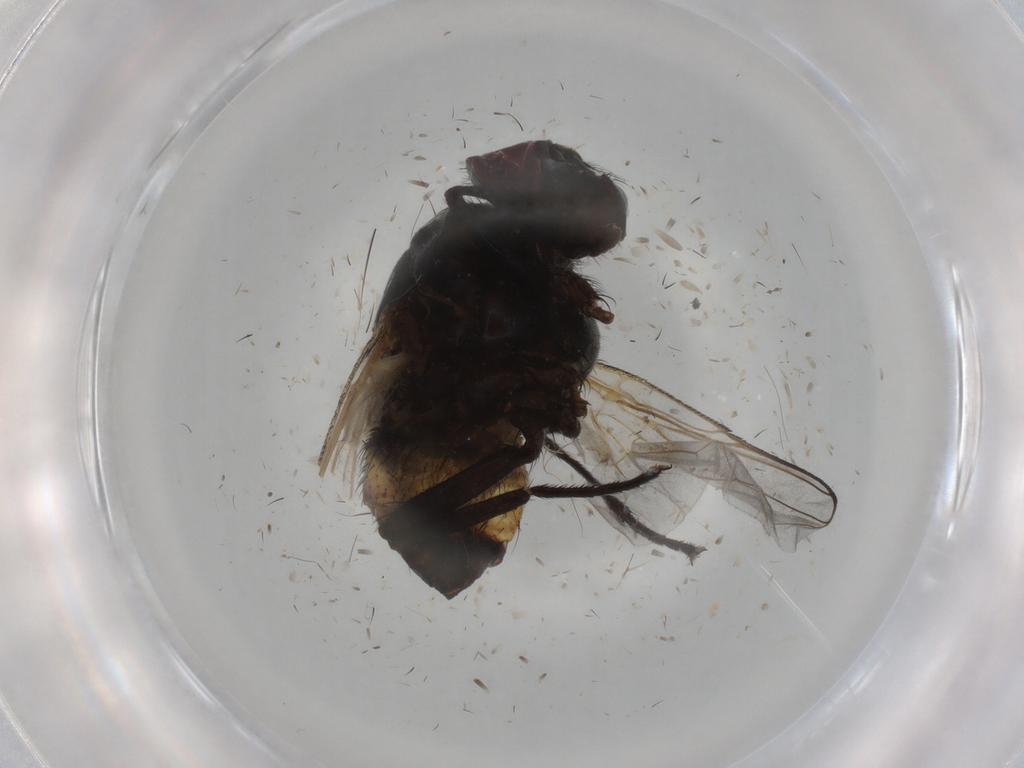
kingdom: Animalia
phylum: Arthropoda
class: Insecta
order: Diptera
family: Muscidae
